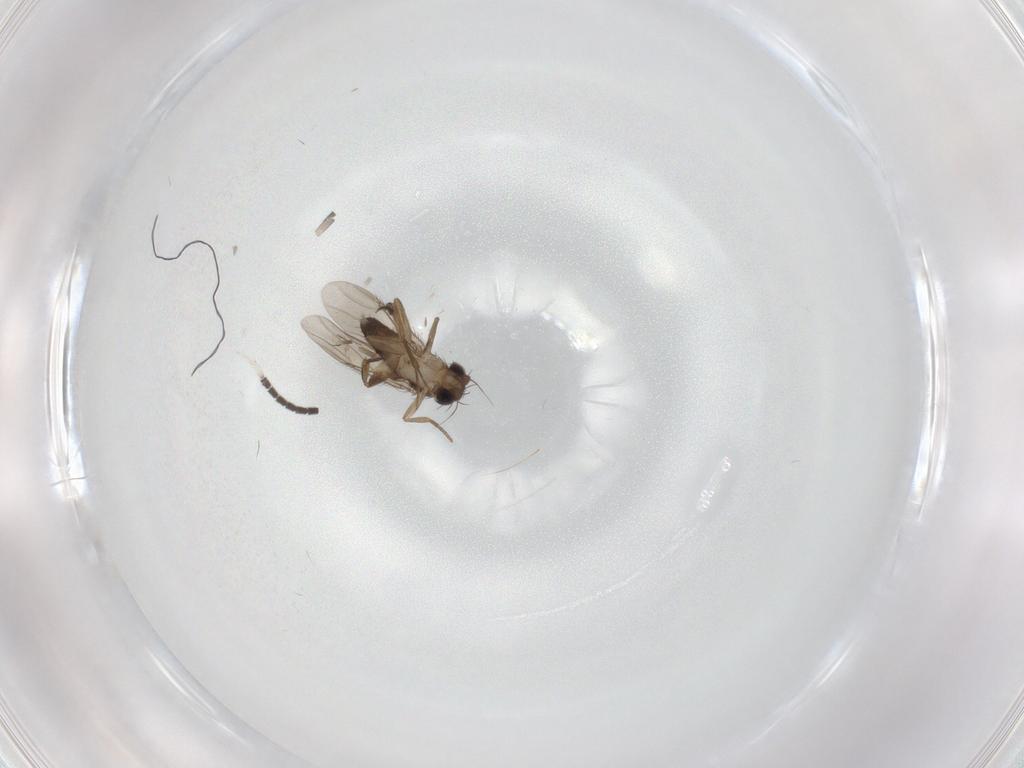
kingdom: Animalia
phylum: Arthropoda
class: Insecta
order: Diptera
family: Phoridae
